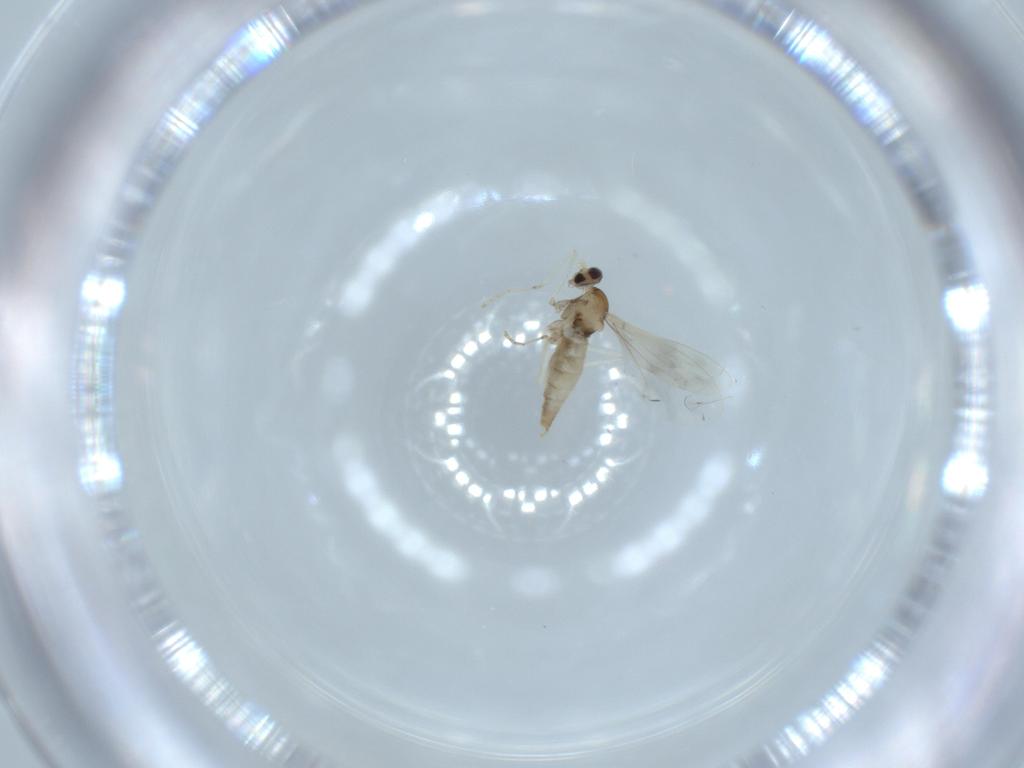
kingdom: Animalia
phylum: Arthropoda
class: Insecta
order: Diptera
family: Cecidomyiidae
